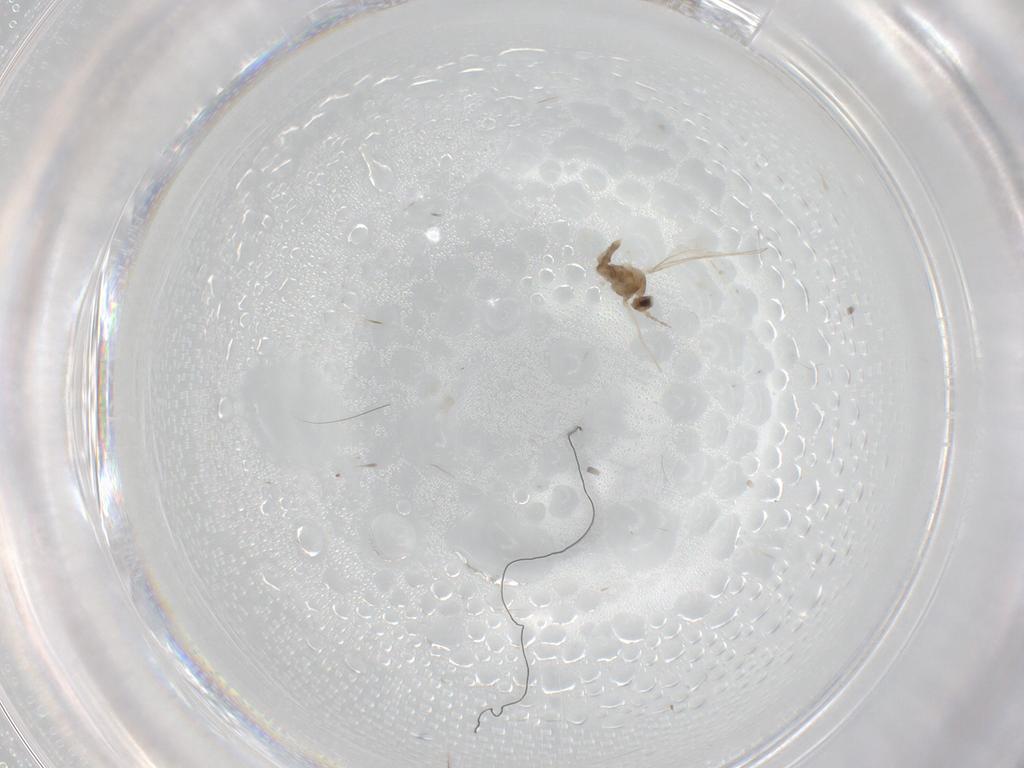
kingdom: Animalia
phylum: Arthropoda
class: Insecta
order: Diptera
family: Cecidomyiidae
